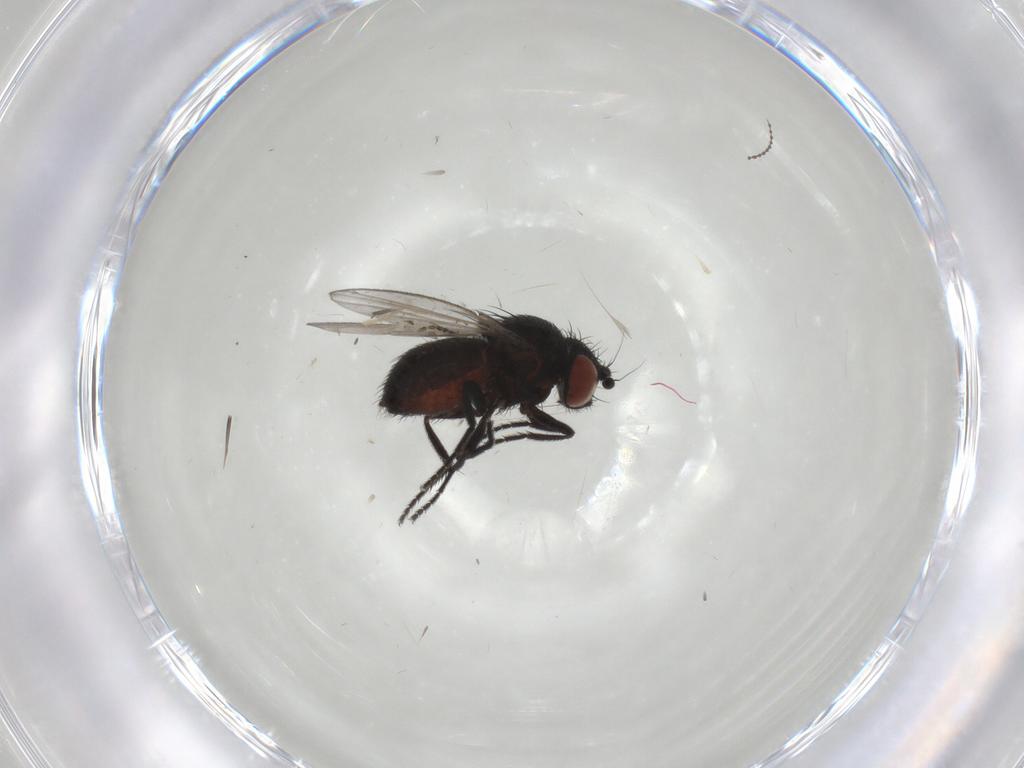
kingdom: Animalia
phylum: Arthropoda
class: Insecta
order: Diptera
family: Milichiidae
